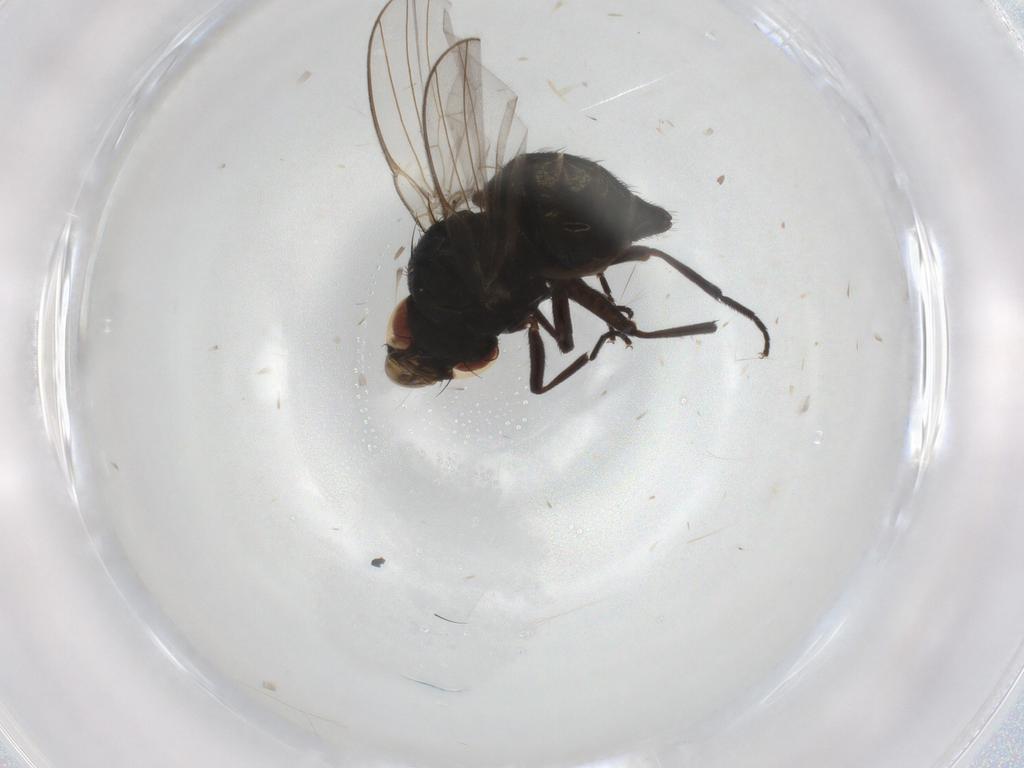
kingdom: Animalia
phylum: Arthropoda
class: Insecta
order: Diptera
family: Agromyzidae
